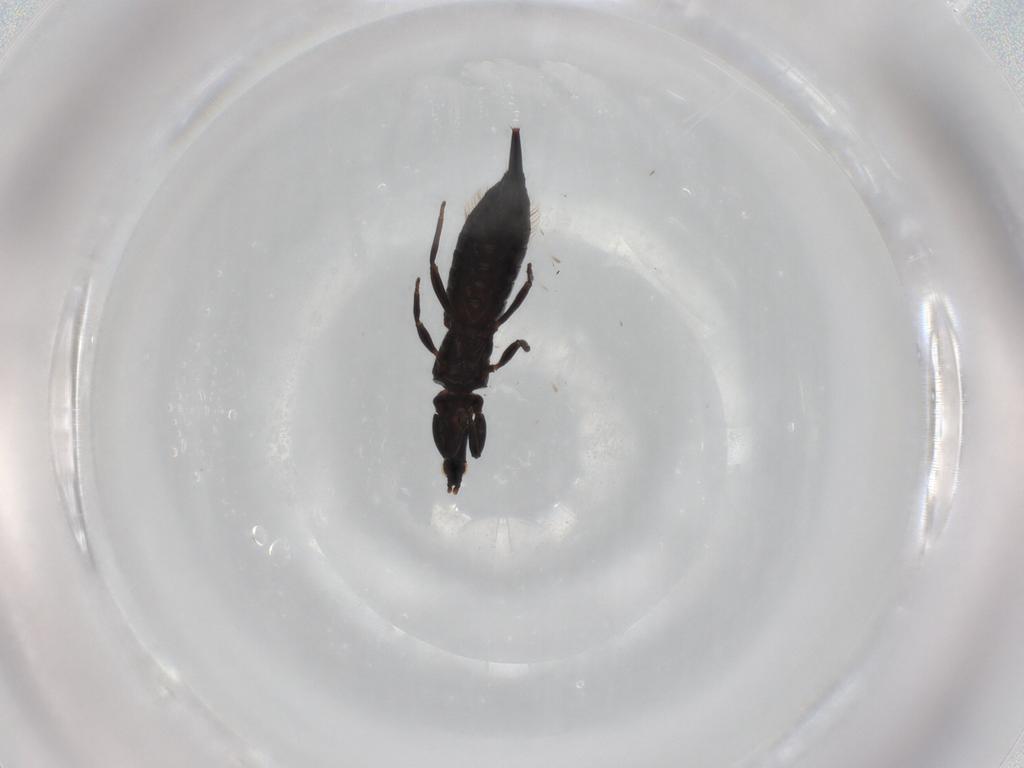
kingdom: Animalia
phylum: Arthropoda
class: Insecta
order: Thysanoptera
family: Phlaeothripidae
